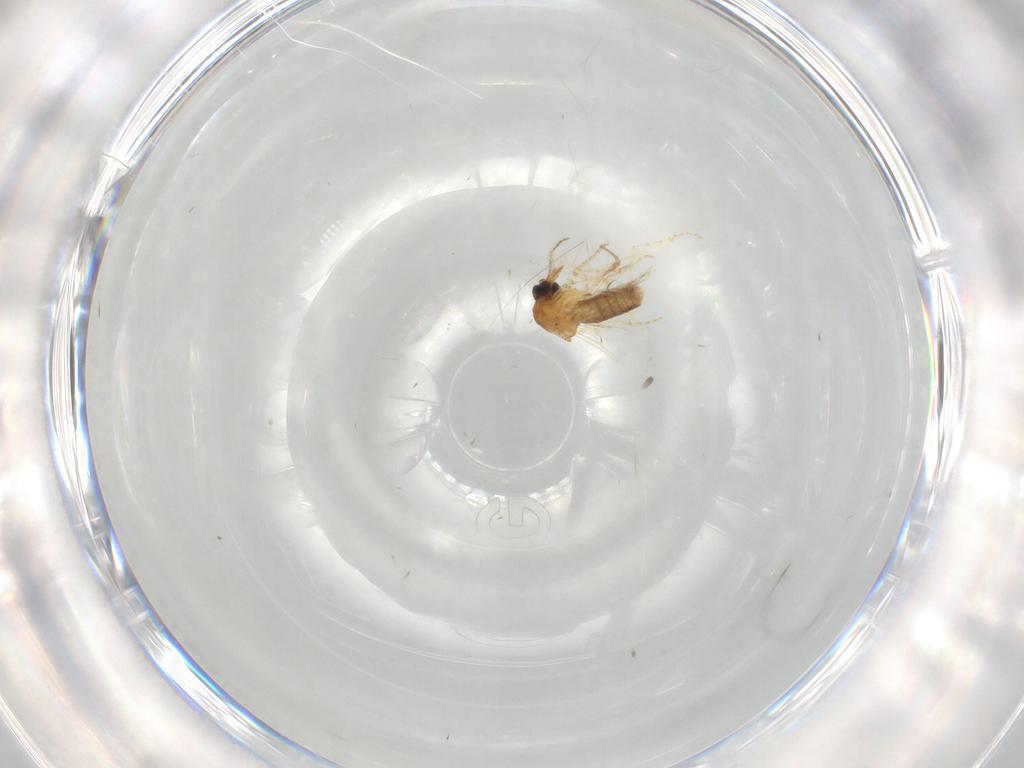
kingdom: Animalia
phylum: Arthropoda
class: Insecta
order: Diptera
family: Ceratopogonidae
